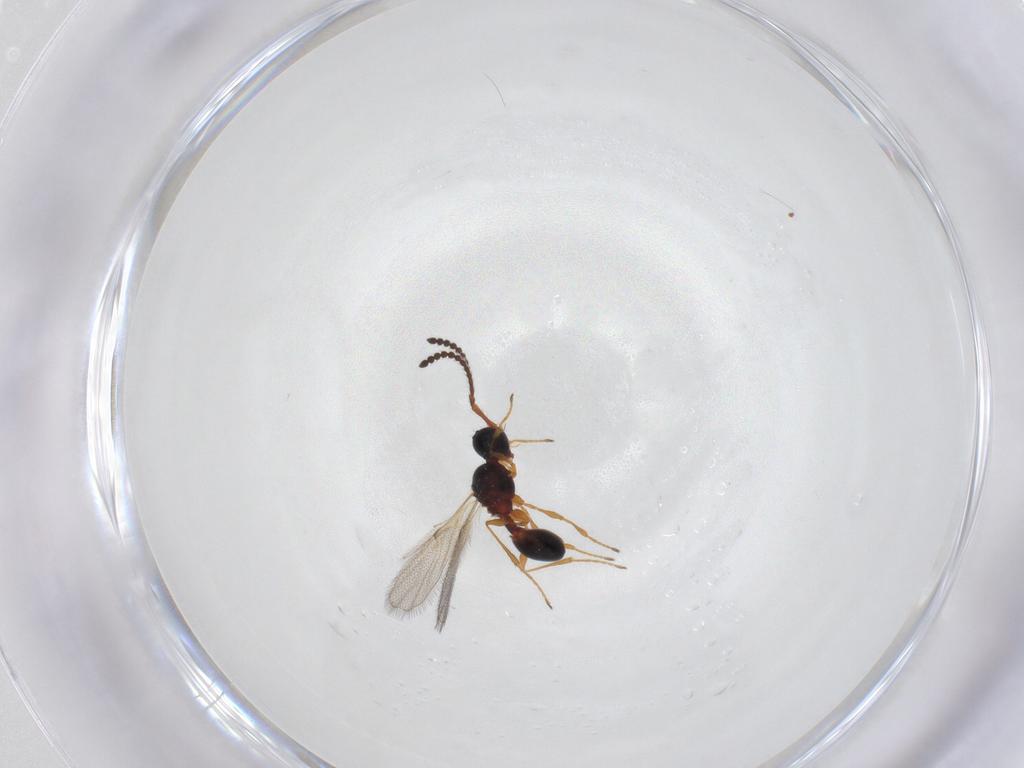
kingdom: Animalia
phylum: Arthropoda
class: Insecta
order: Hymenoptera
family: Diapriidae
